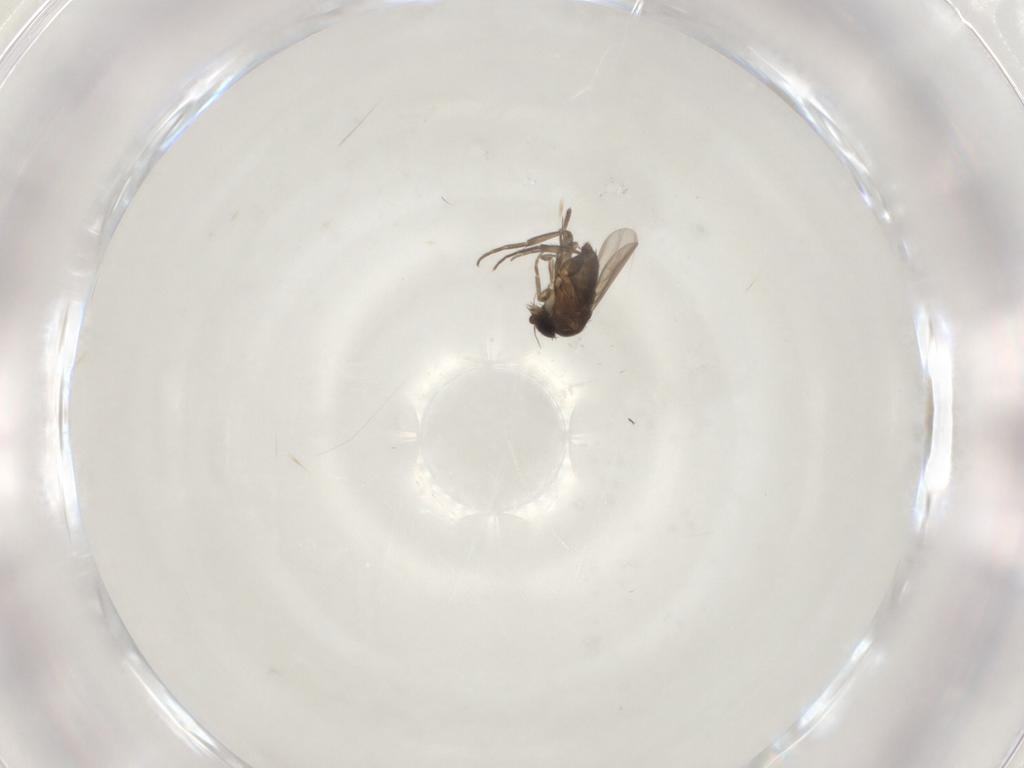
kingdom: Animalia
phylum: Arthropoda
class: Insecta
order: Diptera
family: Phoridae
